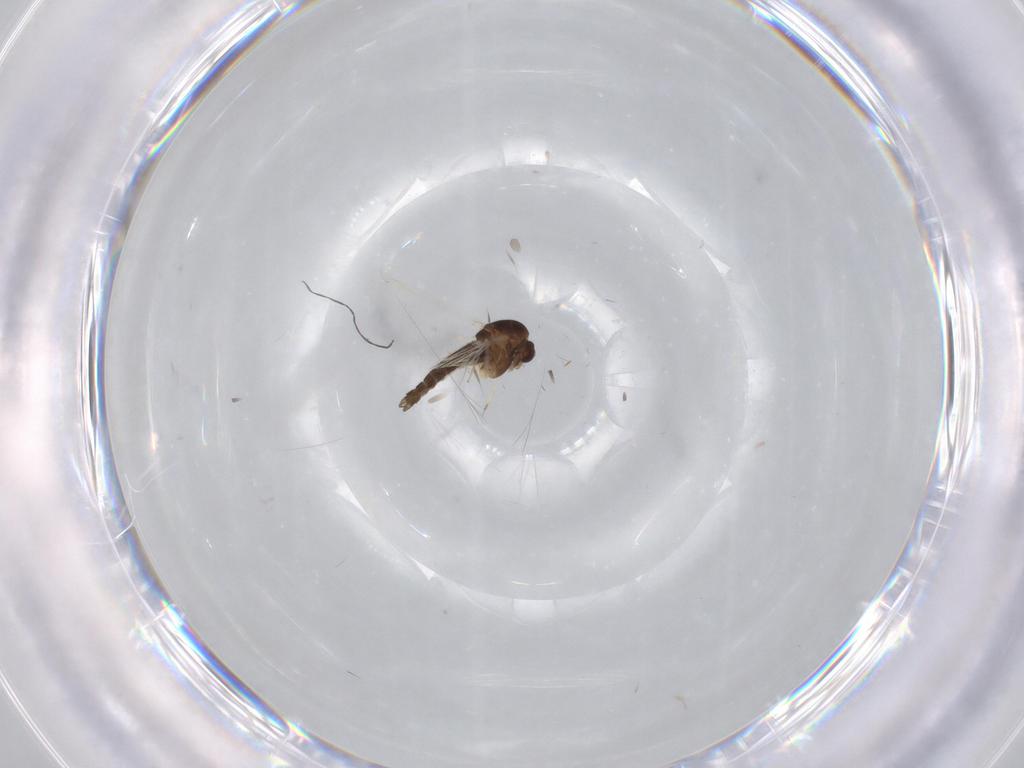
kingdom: Animalia
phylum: Arthropoda
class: Insecta
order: Diptera
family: Chironomidae
